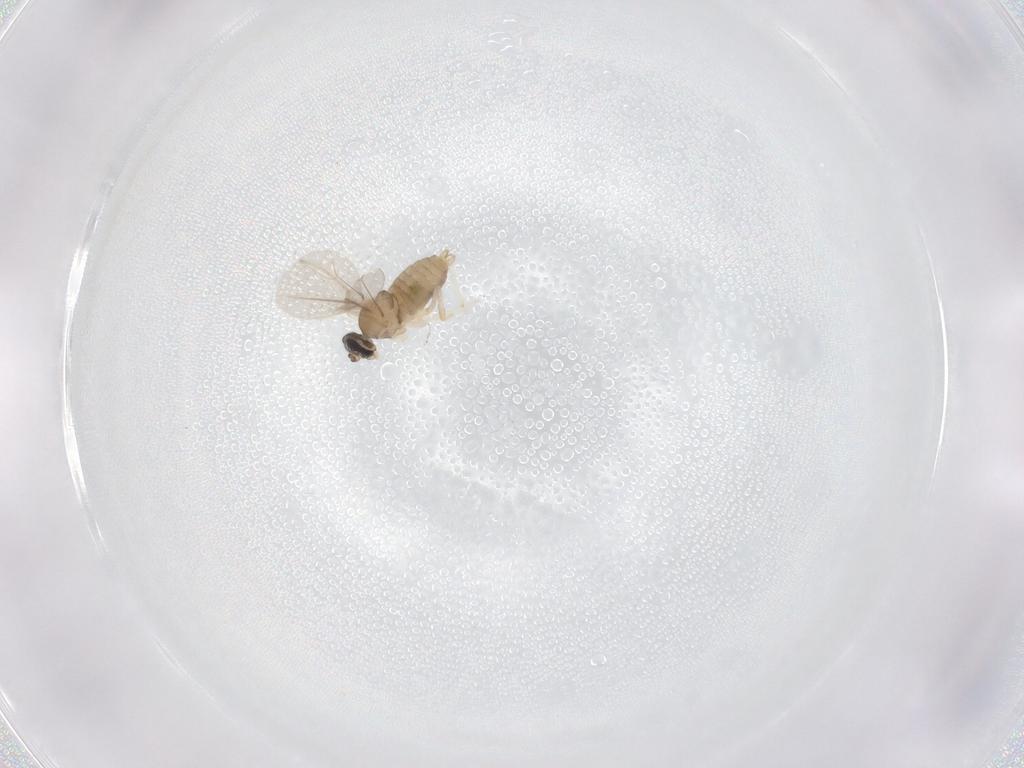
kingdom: Animalia
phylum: Arthropoda
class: Insecta
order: Diptera
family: Cecidomyiidae
